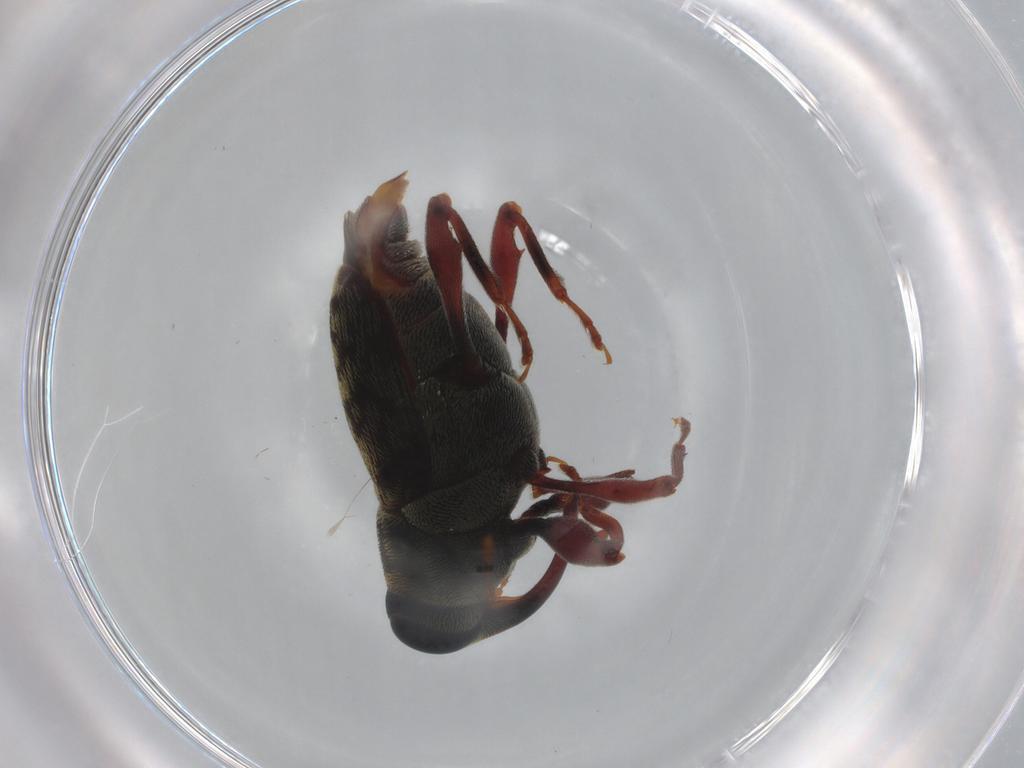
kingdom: Animalia
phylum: Arthropoda
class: Insecta
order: Coleoptera
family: Curculionidae
